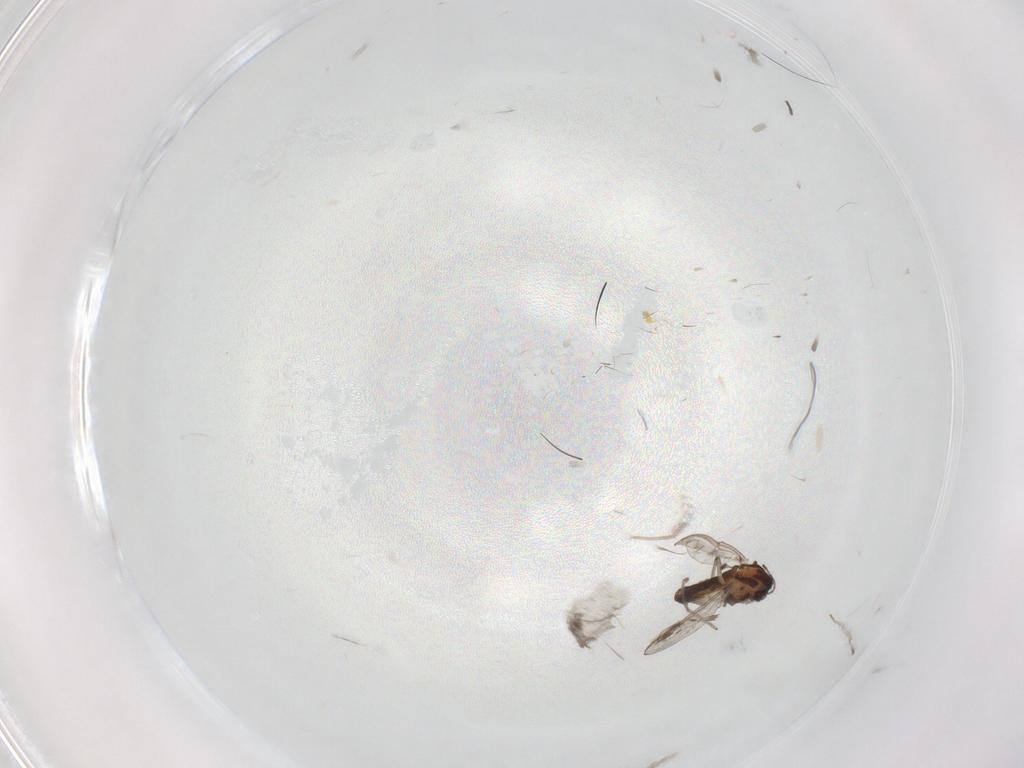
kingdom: Animalia
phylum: Arthropoda
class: Insecta
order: Diptera
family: Chironomidae
